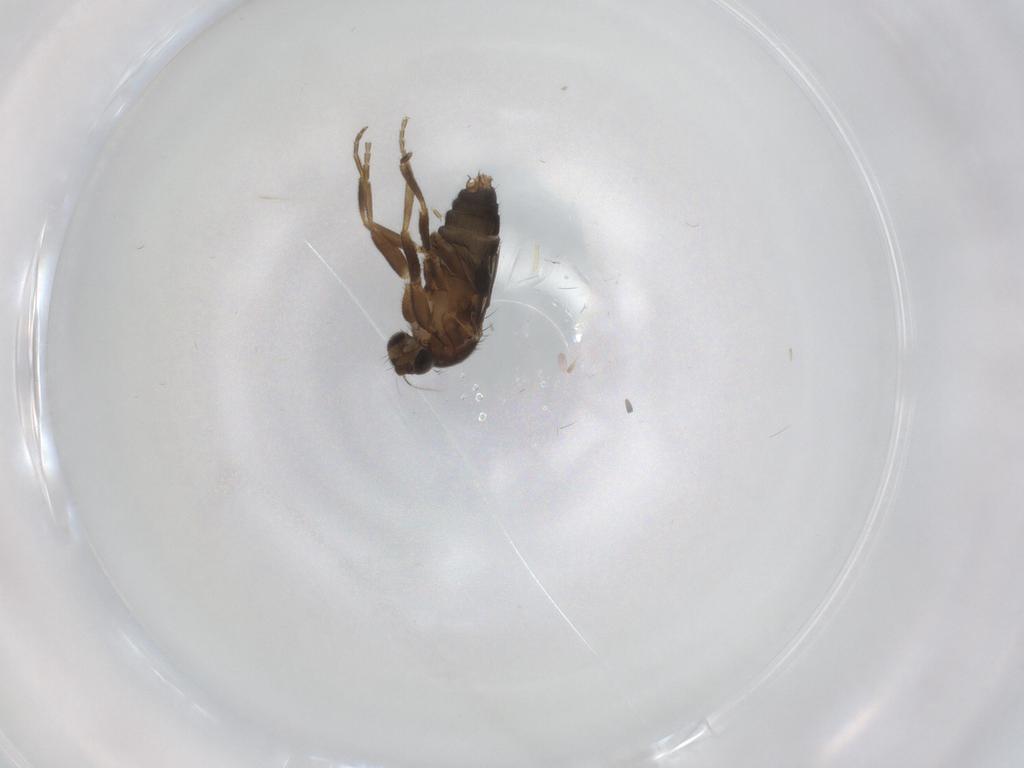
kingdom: Animalia
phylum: Arthropoda
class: Insecta
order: Diptera
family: Phoridae
